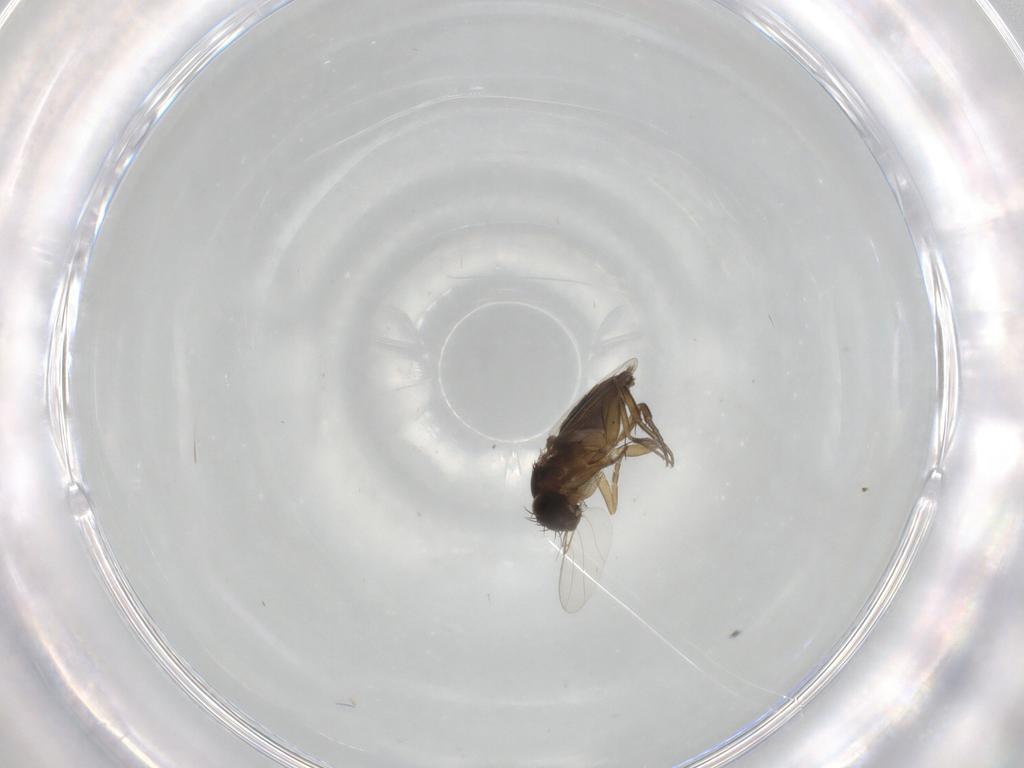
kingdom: Animalia
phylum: Arthropoda
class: Insecta
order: Diptera
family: Phoridae
